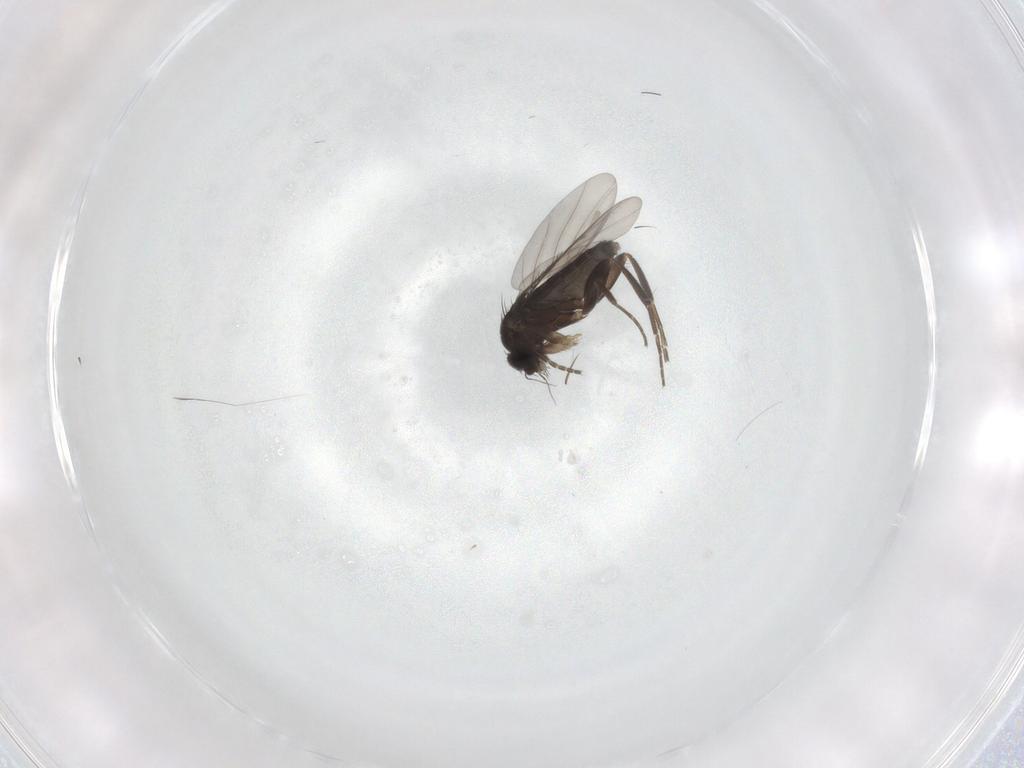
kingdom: Animalia
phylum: Arthropoda
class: Insecta
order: Diptera
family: Phoridae
